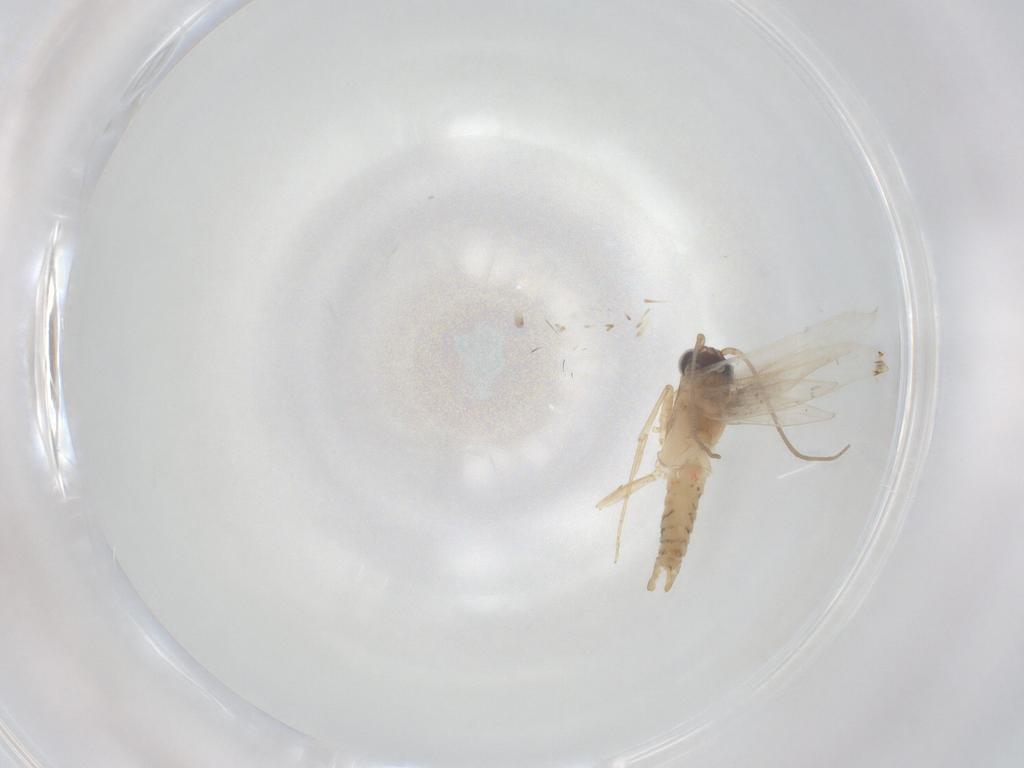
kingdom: Animalia
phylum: Arthropoda
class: Insecta
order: Lepidoptera
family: Tineidae
